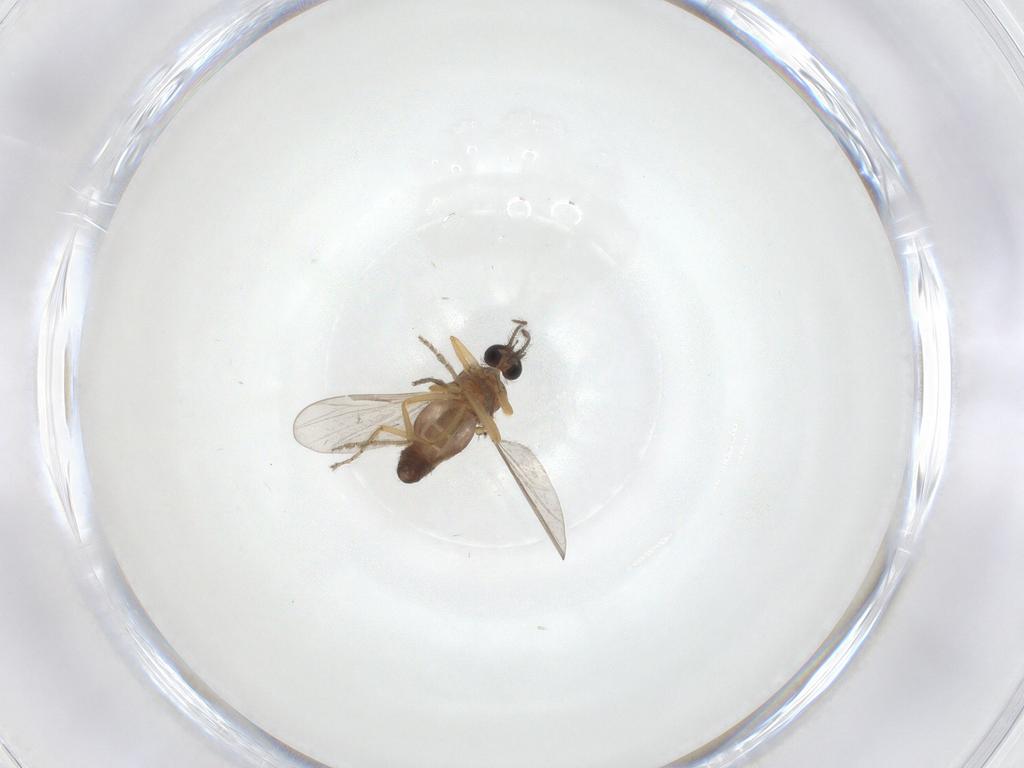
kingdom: Animalia
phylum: Arthropoda
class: Insecta
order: Diptera
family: Ceratopogonidae
